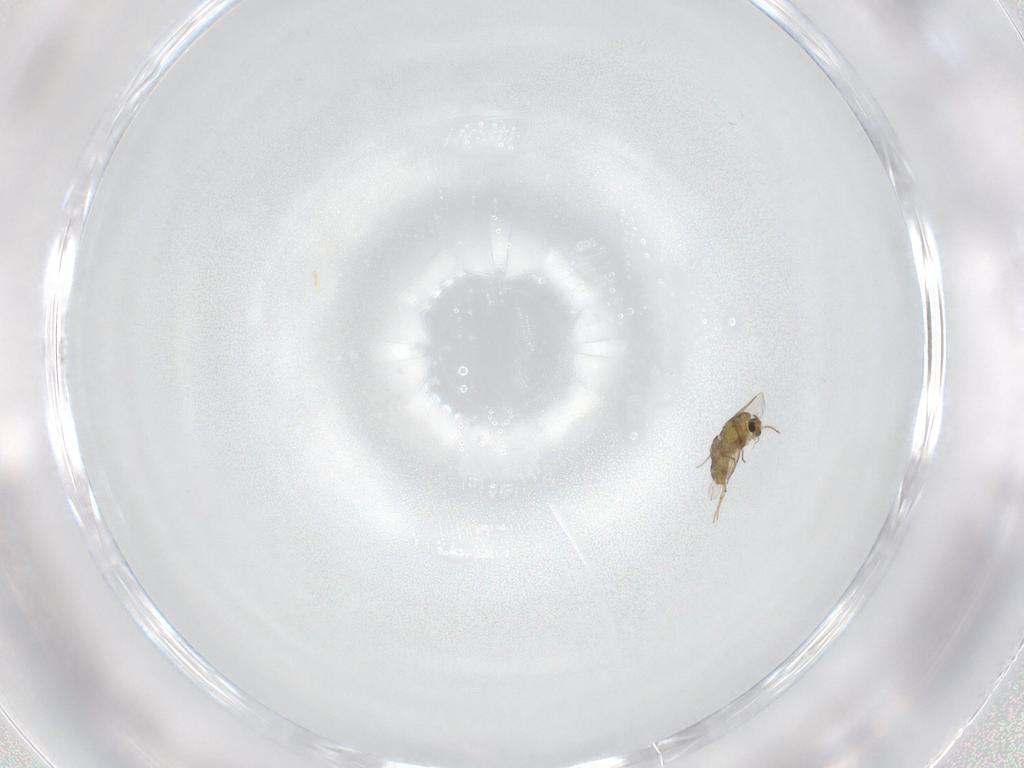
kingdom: Animalia
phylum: Arthropoda
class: Insecta
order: Diptera
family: Chironomidae
